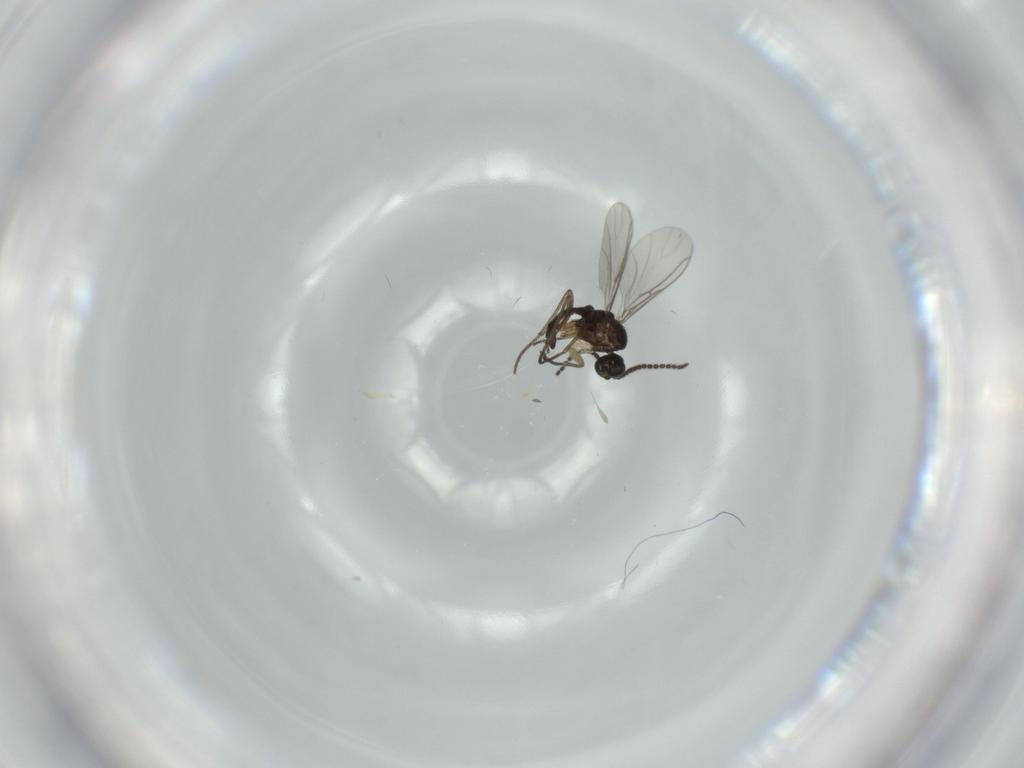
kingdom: Animalia
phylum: Arthropoda
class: Insecta
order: Diptera
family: Sciaridae
